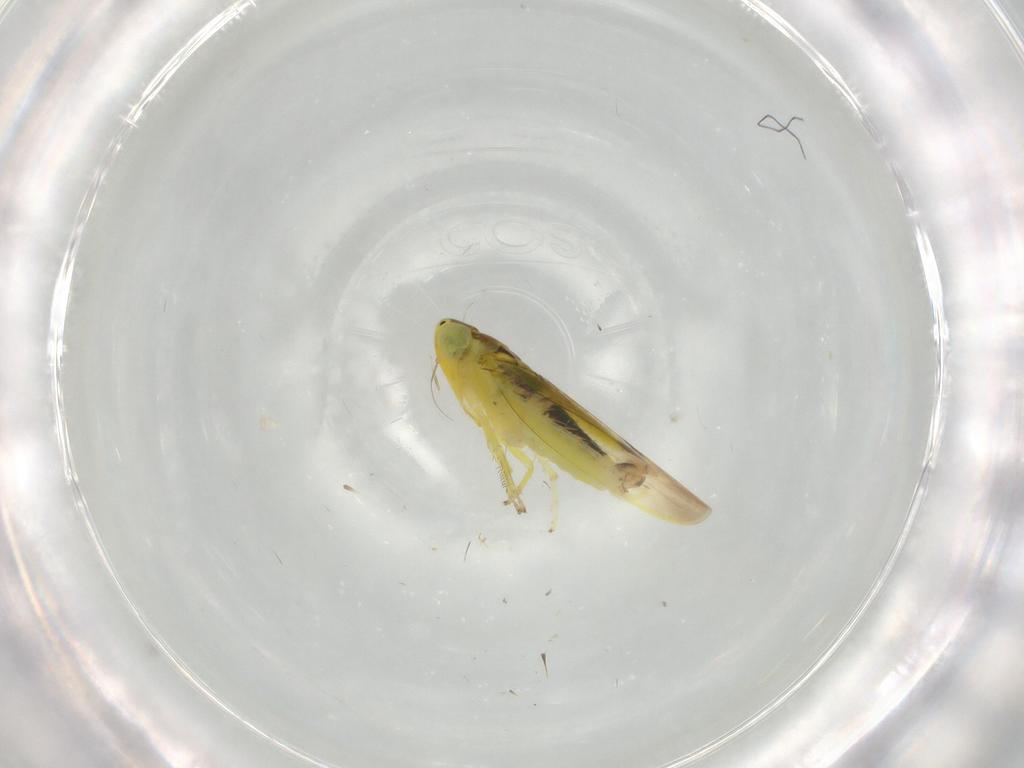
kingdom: Animalia
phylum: Arthropoda
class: Insecta
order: Hemiptera
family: Cicadellidae
